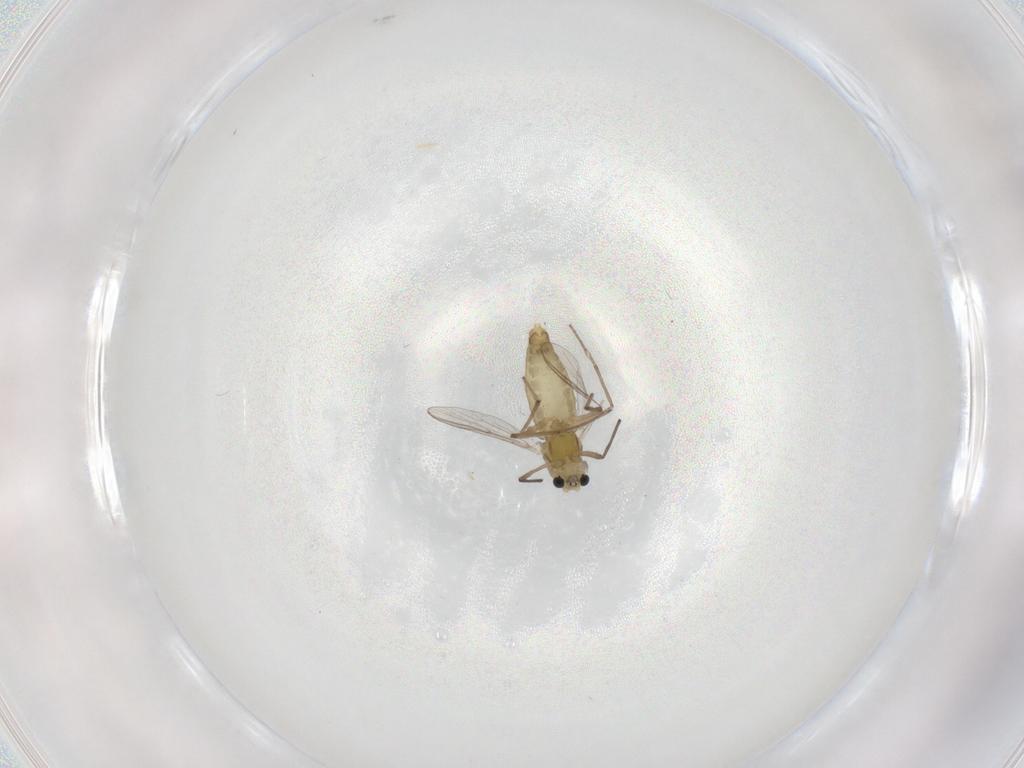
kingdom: Animalia
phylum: Arthropoda
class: Insecta
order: Diptera
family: Chironomidae
